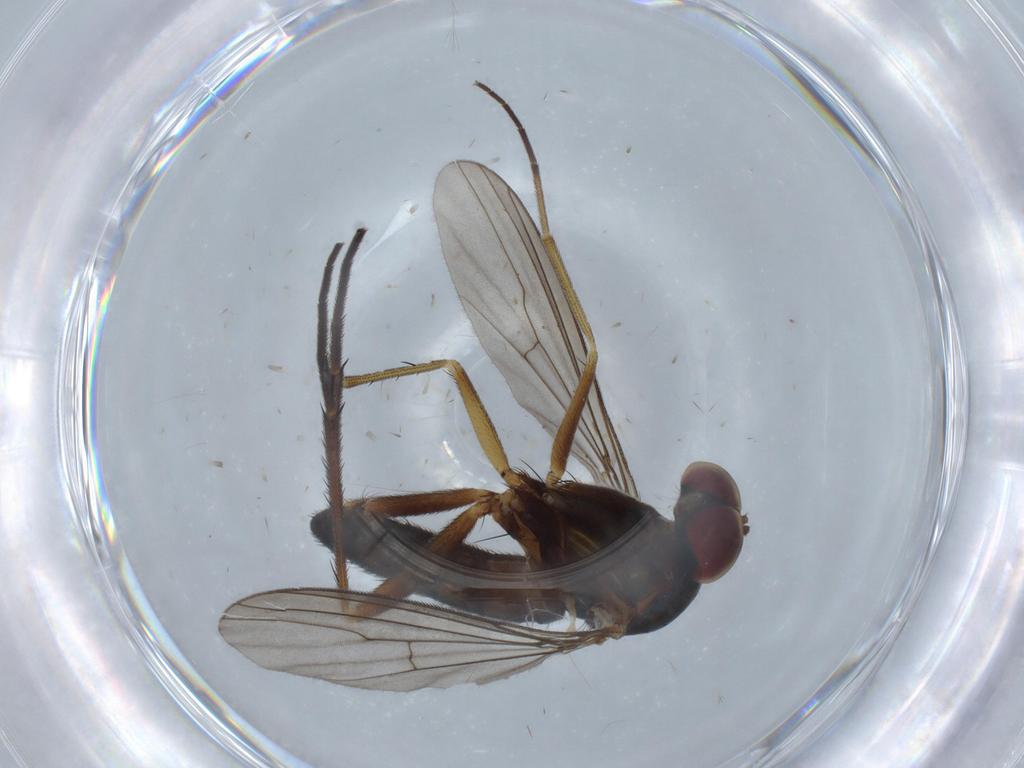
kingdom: Animalia
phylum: Arthropoda
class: Insecta
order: Diptera
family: Dolichopodidae
